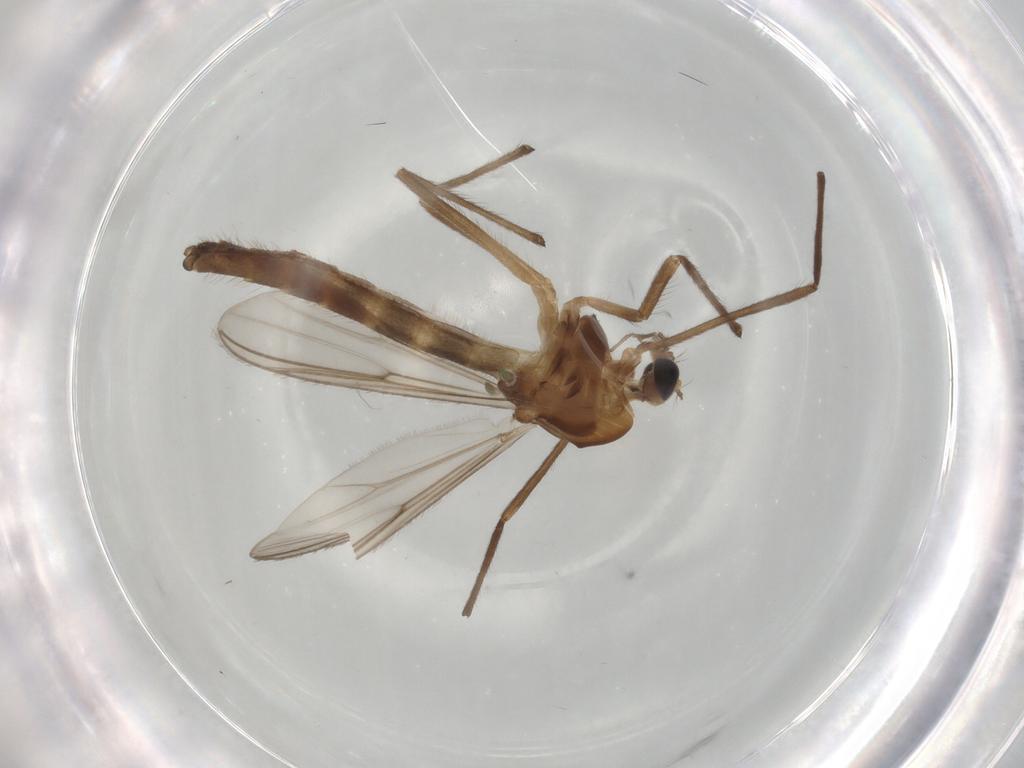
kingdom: Animalia
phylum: Arthropoda
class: Insecta
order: Diptera
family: Chironomidae
